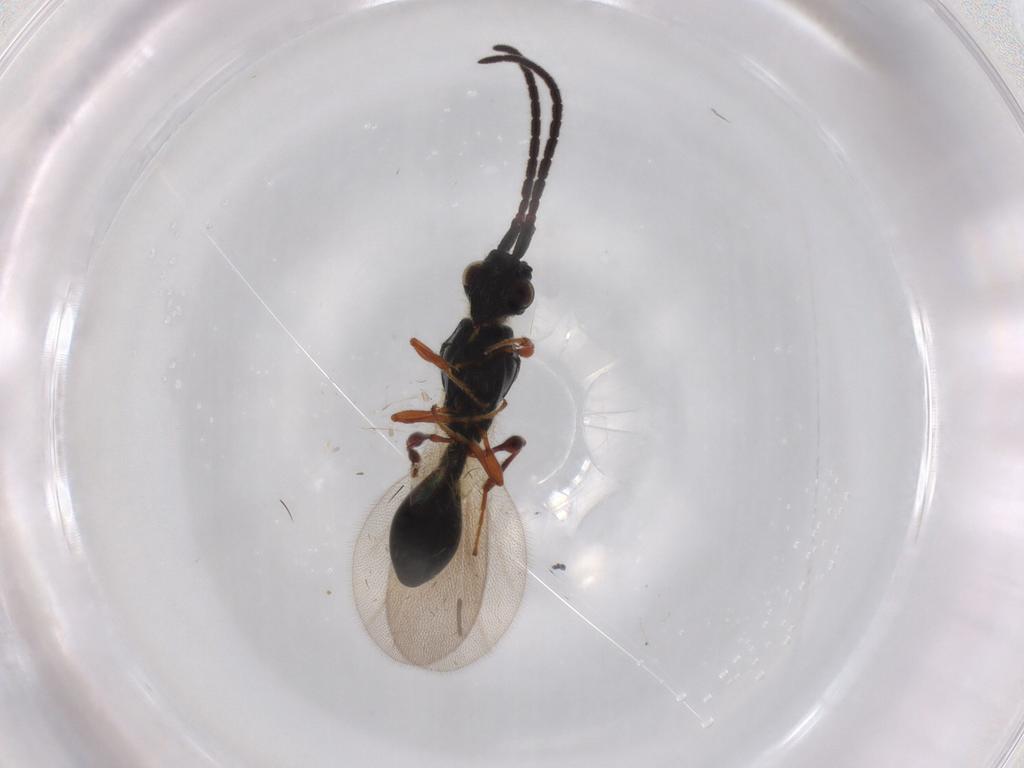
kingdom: Animalia
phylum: Arthropoda
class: Insecta
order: Hymenoptera
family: Diapriidae
